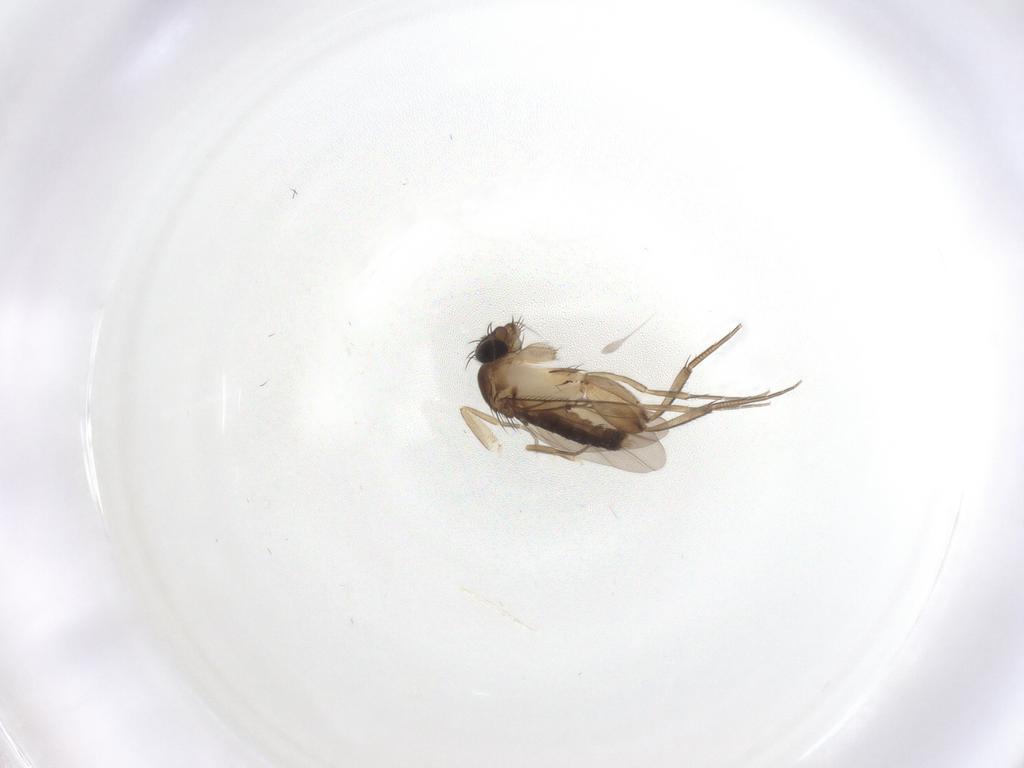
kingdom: Animalia
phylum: Arthropoda
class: Insecta
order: Diptera
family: Phoridae
